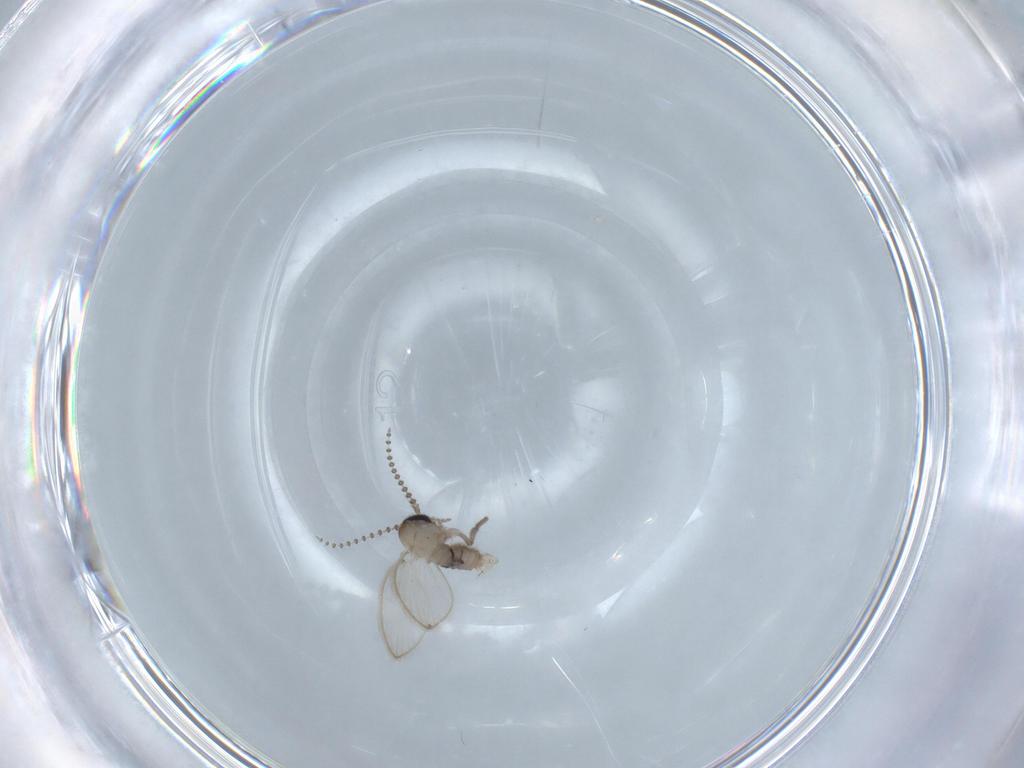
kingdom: Animalia
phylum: Arthropoda
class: Insecta
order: Diptera
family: Psychodidae
